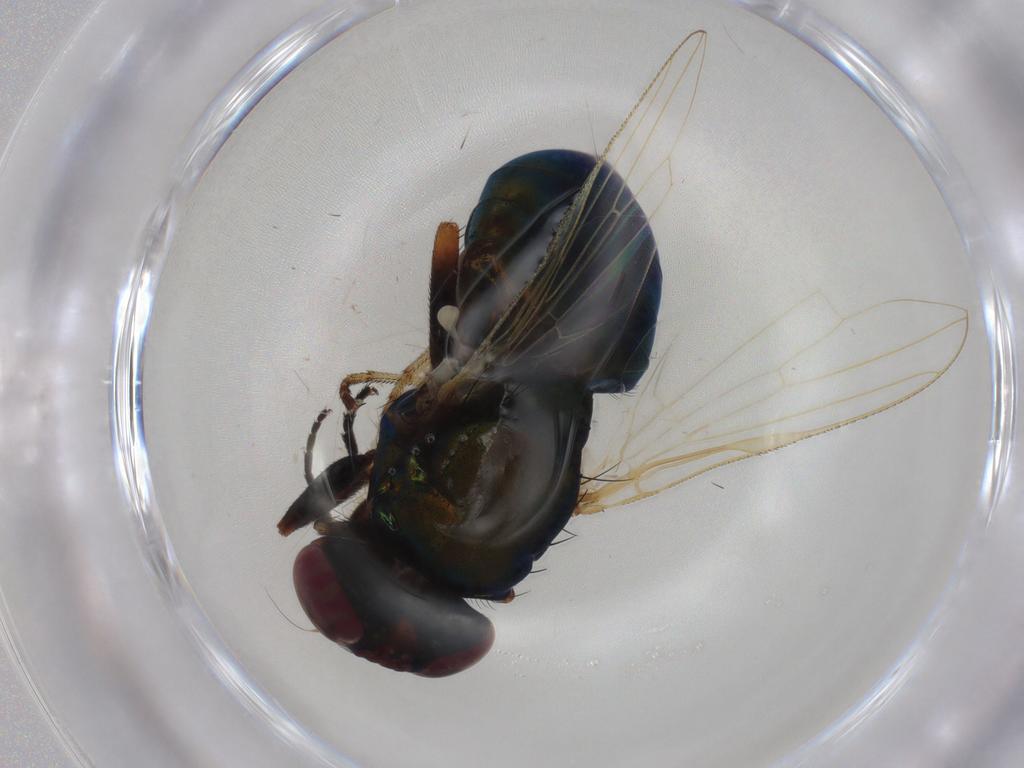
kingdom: Animalia
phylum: Arthropoda
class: Insecta
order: Diptera
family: Ulidiidae
